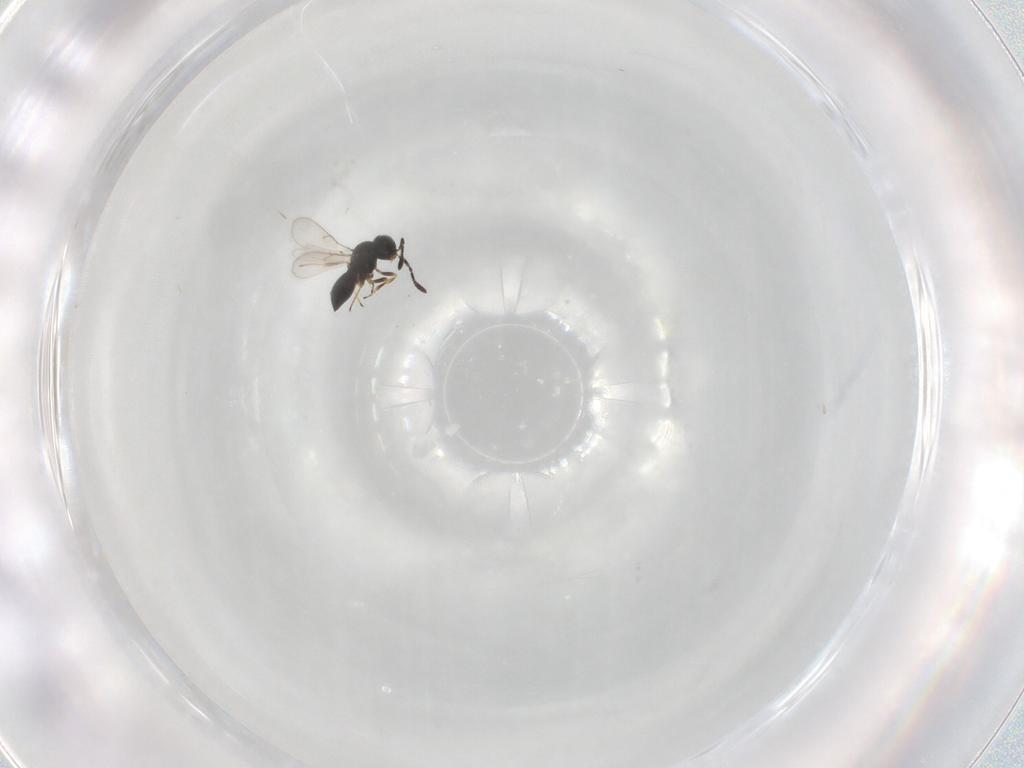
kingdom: Animalia
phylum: Arthropoda
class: Insecta
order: Hymenoptera
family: Scelionidae
